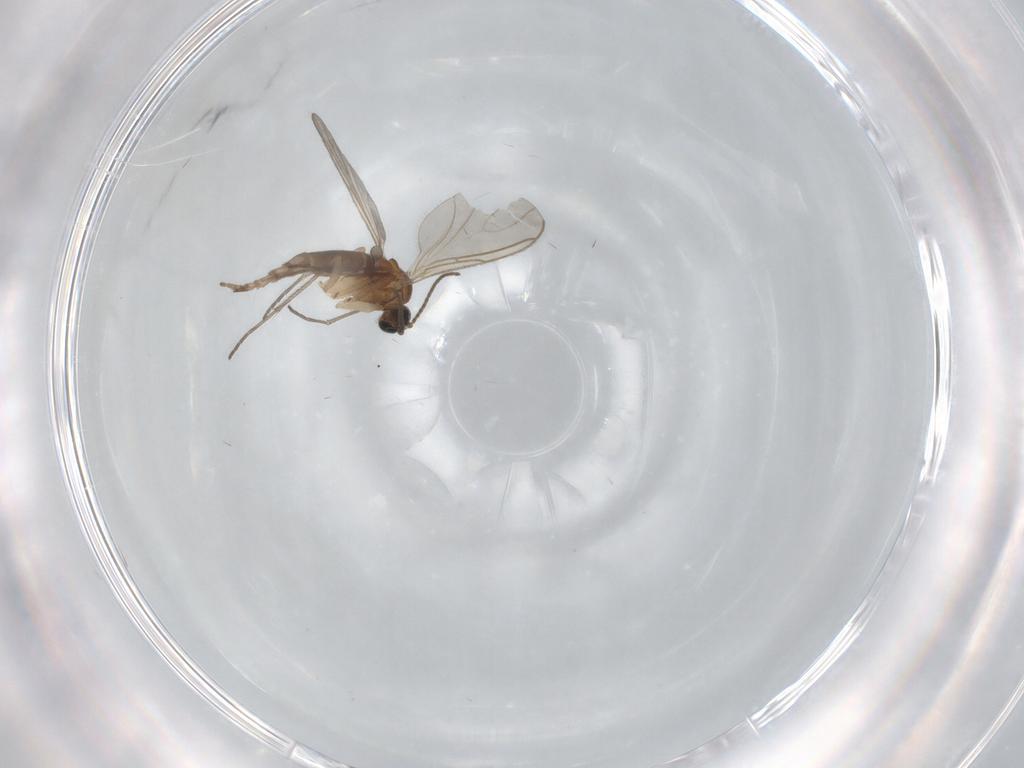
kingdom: Animalia
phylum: Arthropoda
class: Insecta
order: Diptera
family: Sciaridae
